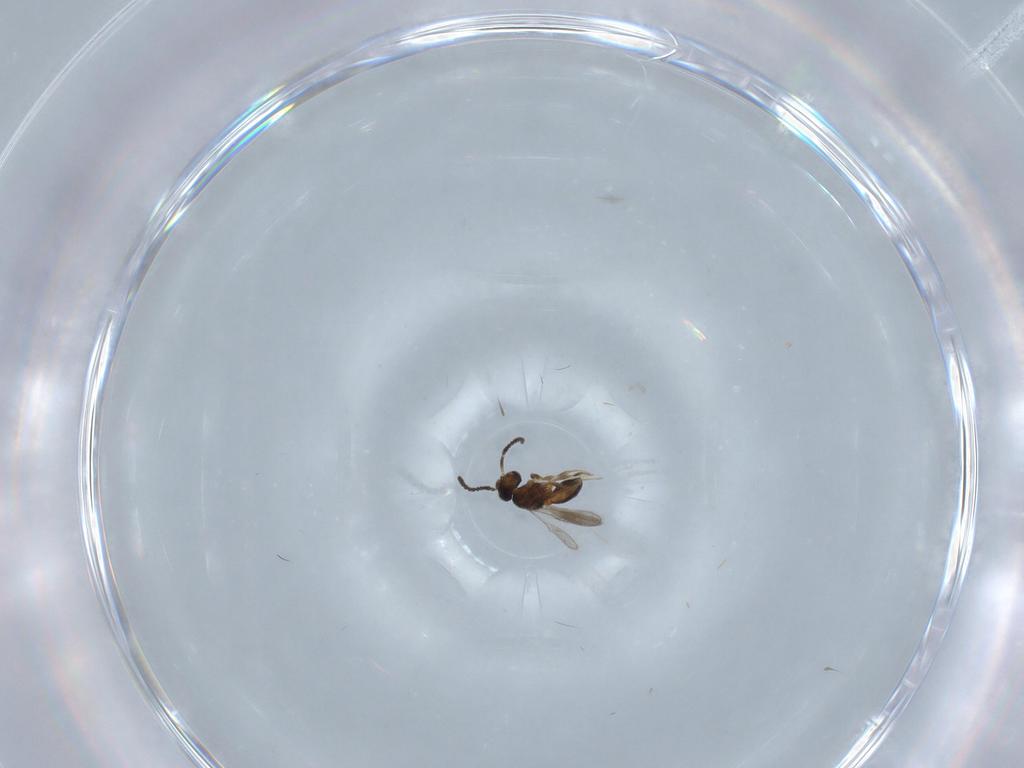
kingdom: Animalia
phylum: Arthropoda
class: Insecta
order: Hymenoptera
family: Scelionidae
